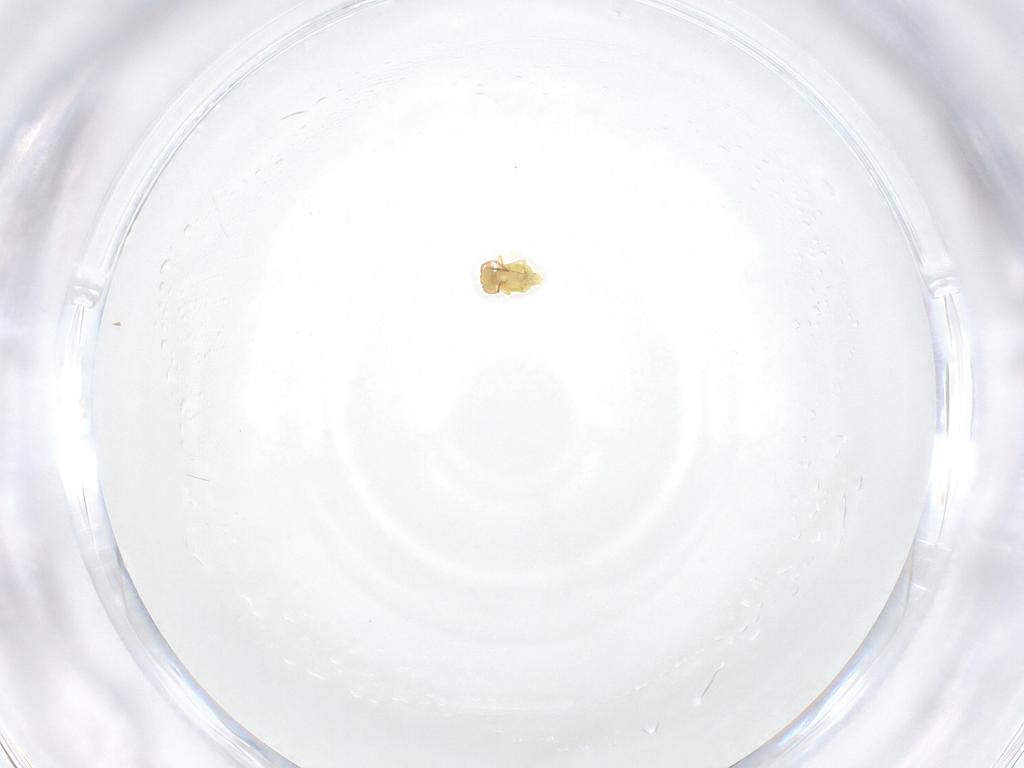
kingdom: Animalia
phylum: Arthropoda
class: Collembola
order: Symphypleona
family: Bourletiellidae
